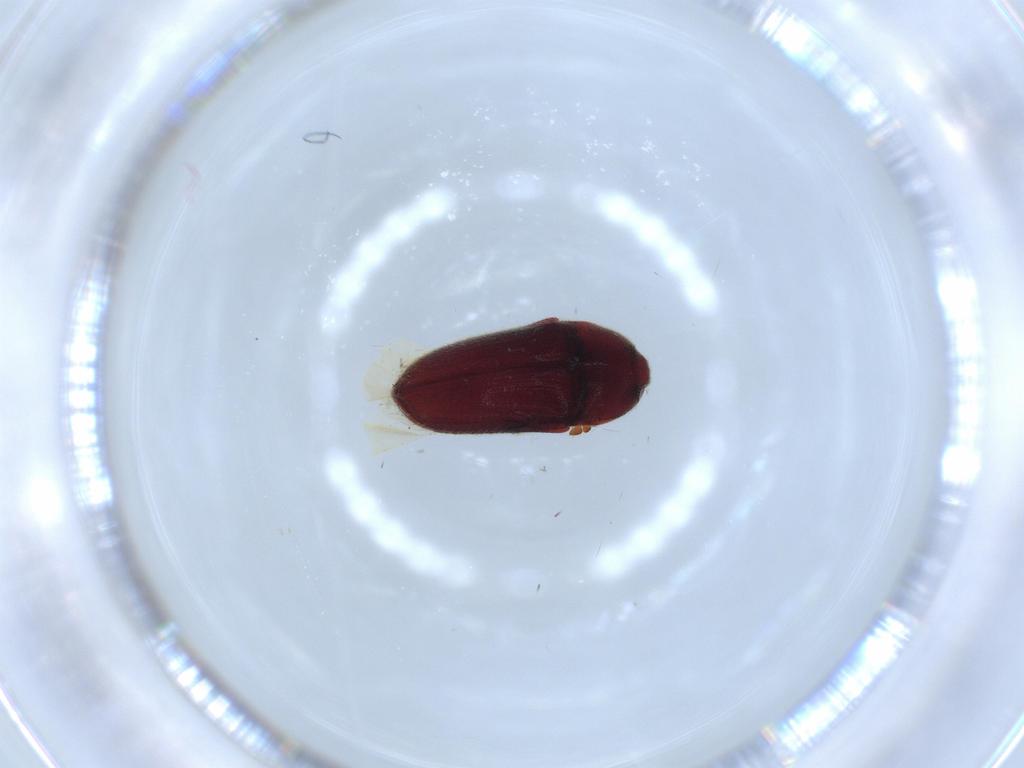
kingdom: Animalia
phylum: Arthropoda
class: Insecta
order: Coleoptera
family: Throscidae
